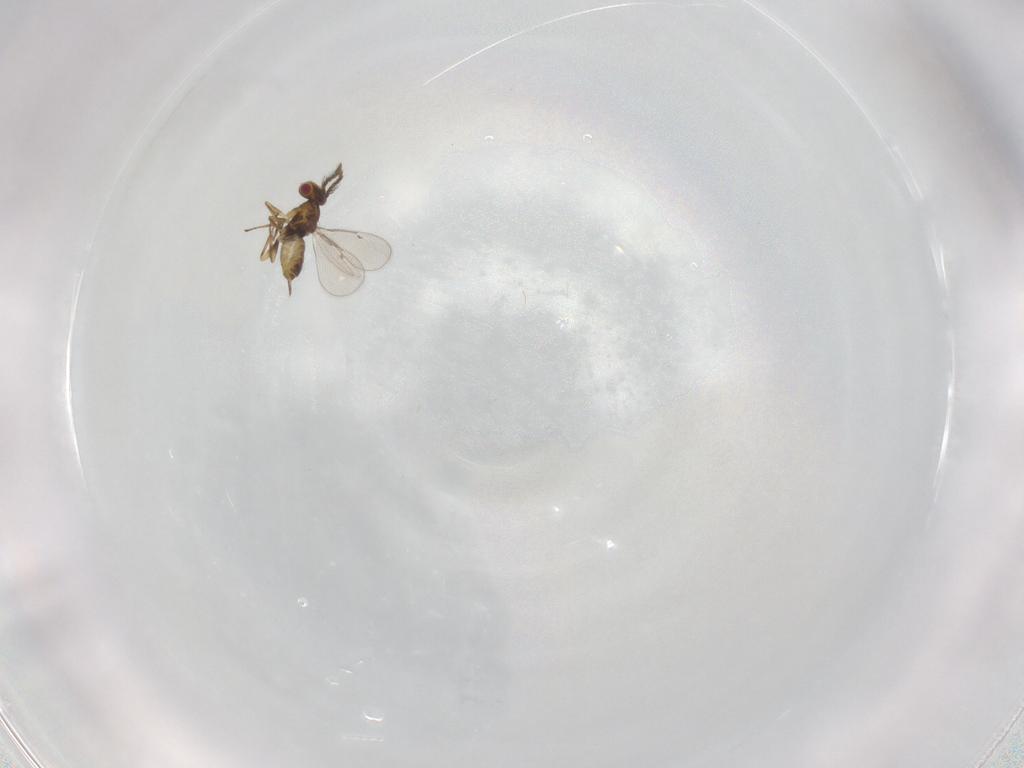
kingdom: Animalia
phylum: Arthropoda
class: Insecta
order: Hymenoptera
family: Eulophidae
